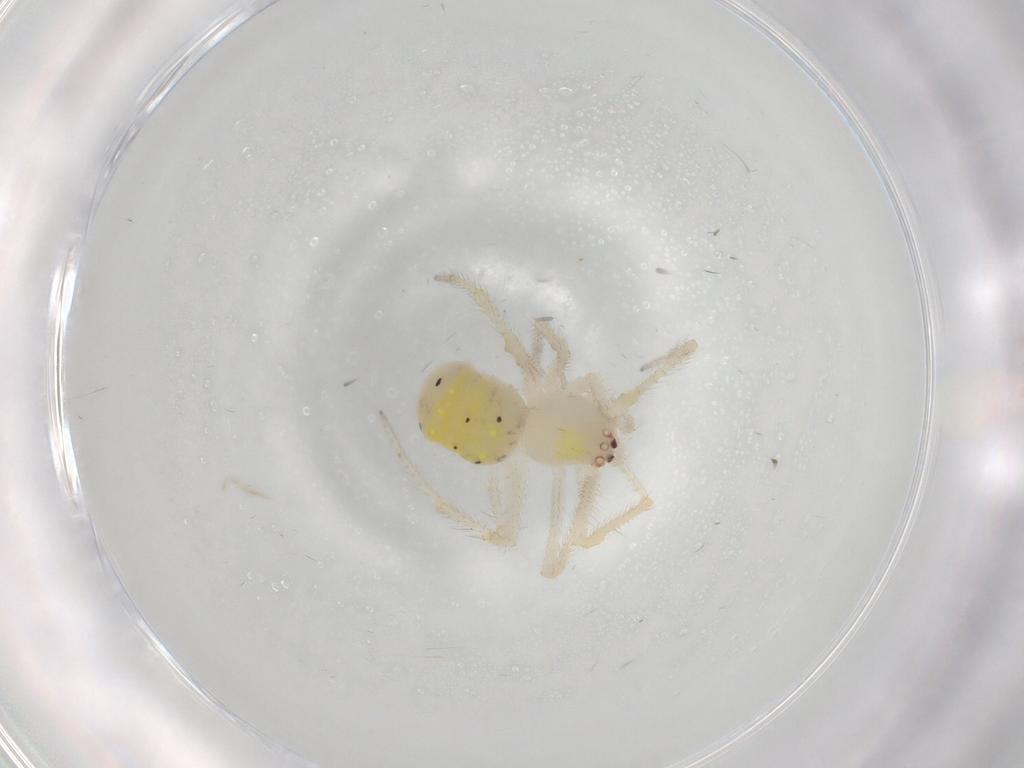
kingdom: Animalia
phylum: Arthropoda
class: Arachnida
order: Araneae
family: Theridiidae
